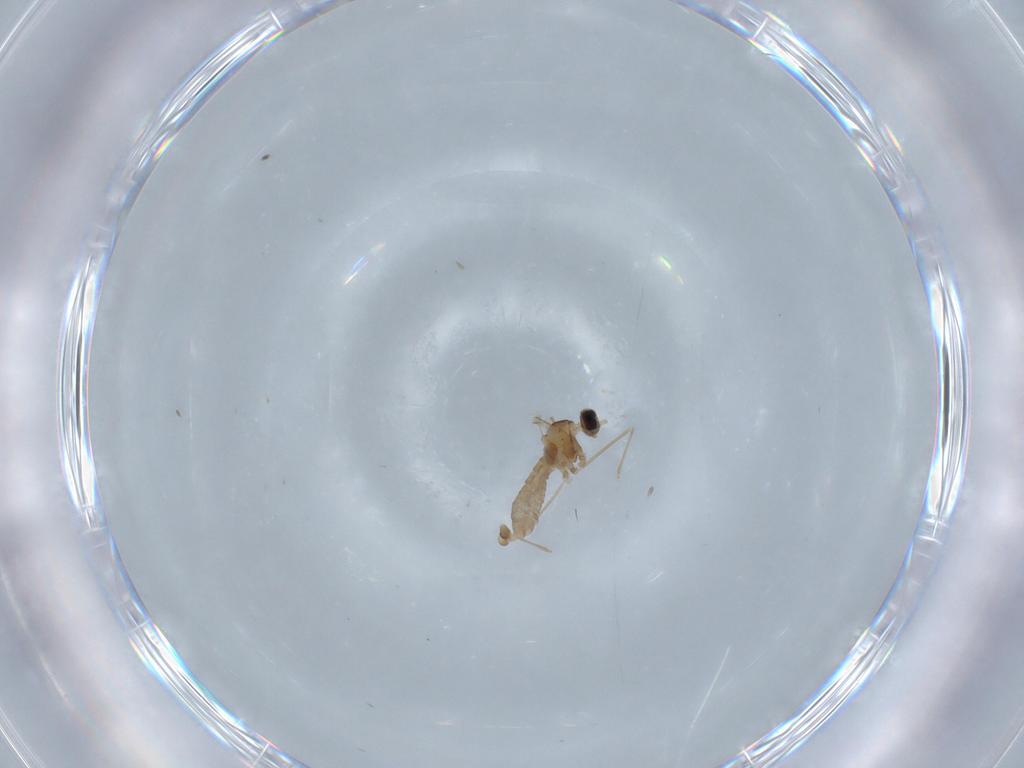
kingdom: Animalia
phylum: Arthropoda
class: Insecta
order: Diptera
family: Cecidomyiidae
